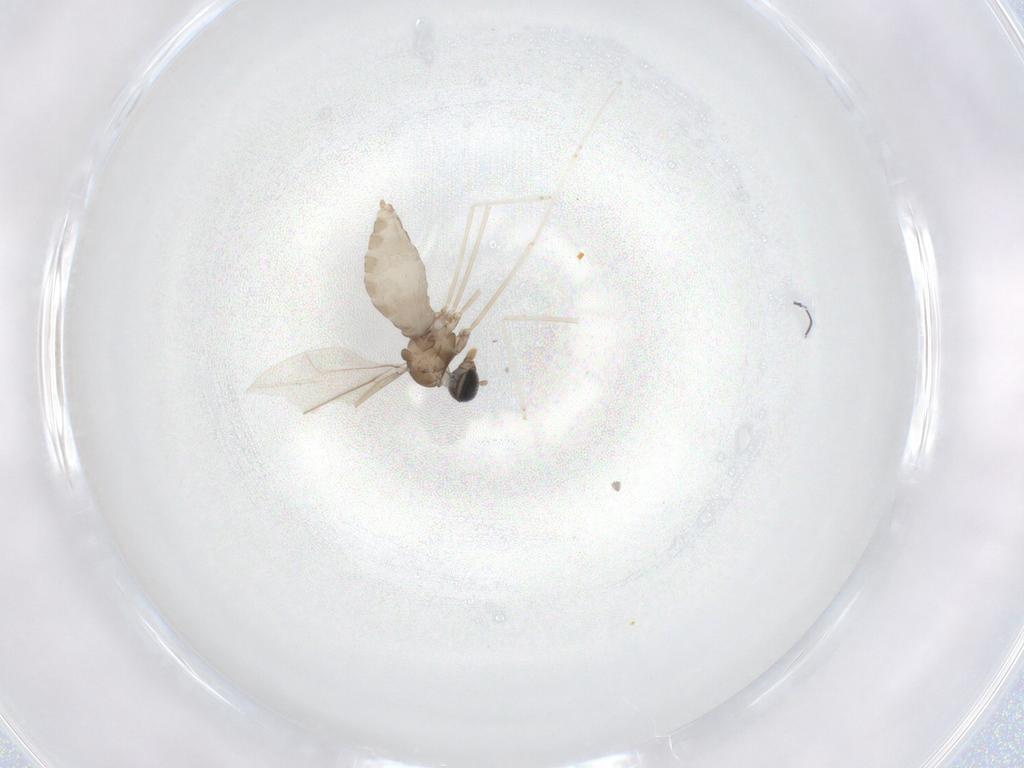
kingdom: Animalia
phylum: Arthropoda
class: Insecta
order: Diptera
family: Cecidomyiidae
